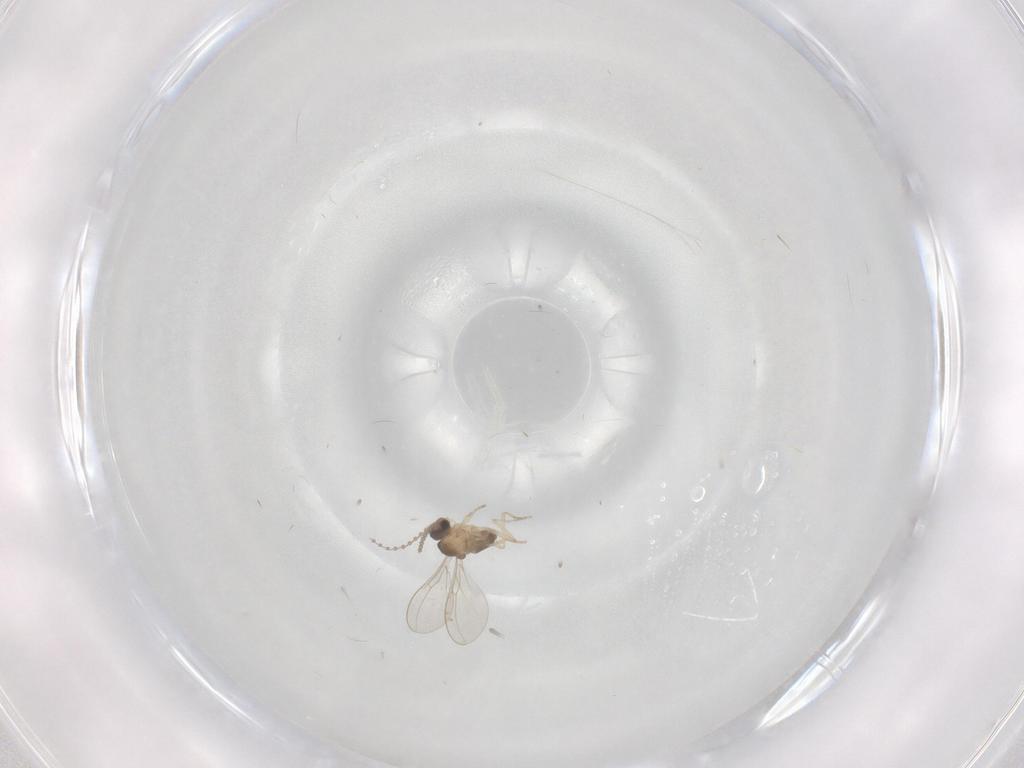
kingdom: Animalia
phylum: Arthropoda
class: Insecta
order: Diptera
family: Cecidomyiidae
